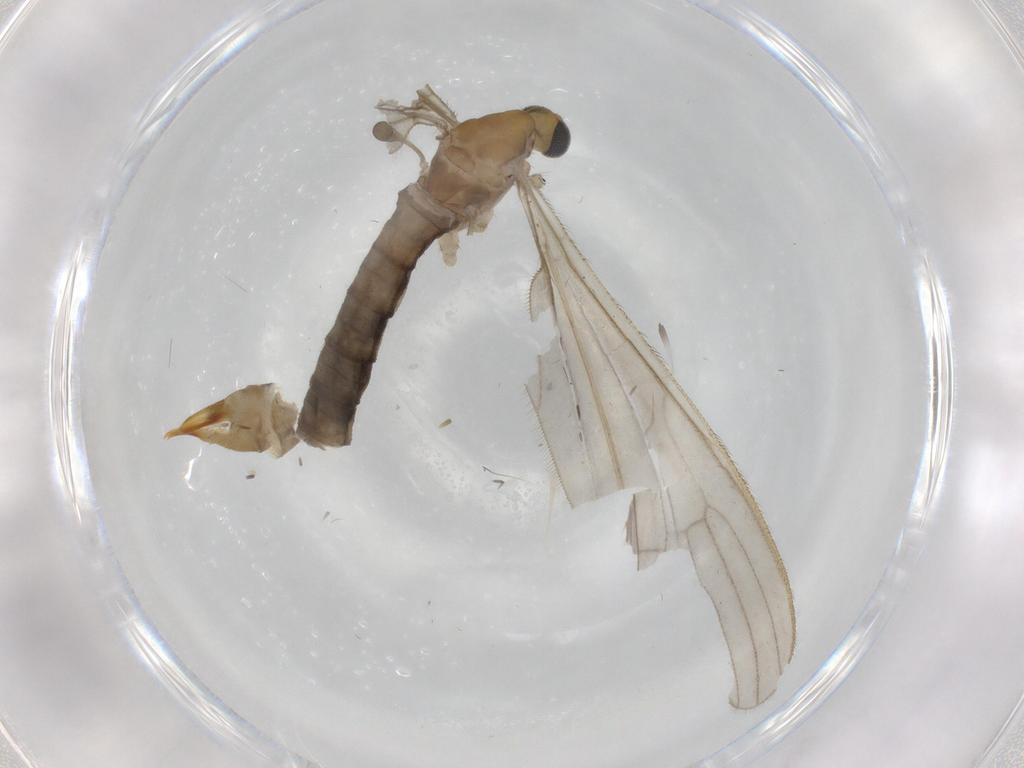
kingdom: Animalia
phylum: Arthropoda
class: Insecta
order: Diptera
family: Limoniidae
